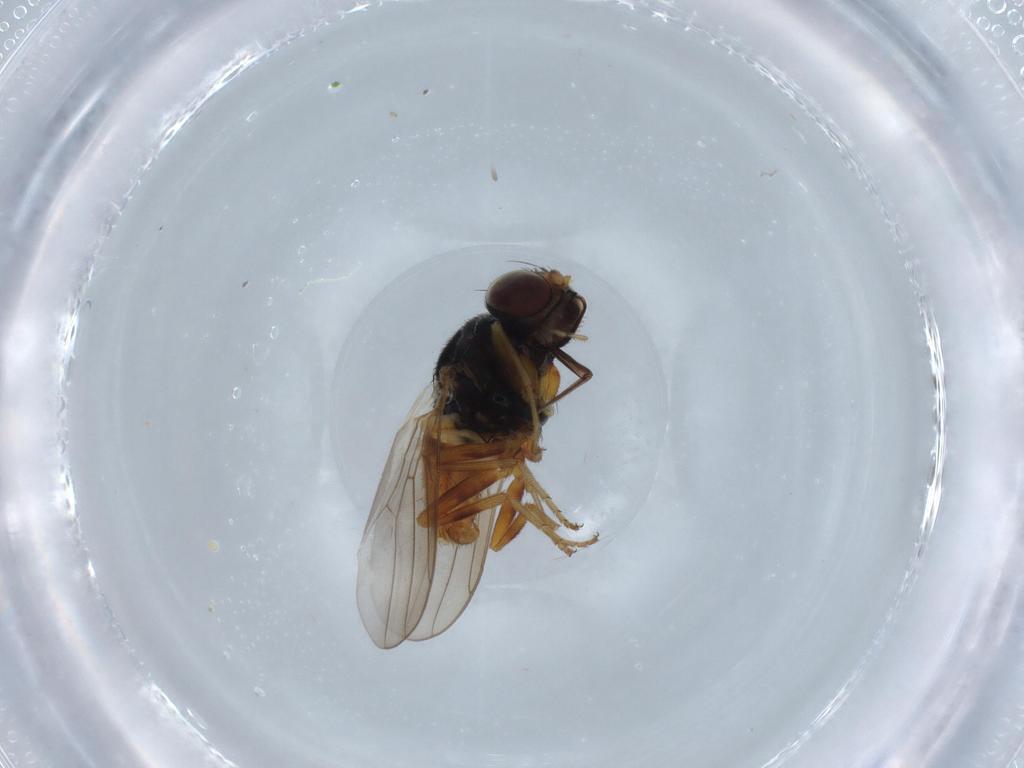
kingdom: Animalia
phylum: Arthropoda
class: Insecta
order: Diptera
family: Chloropidae
